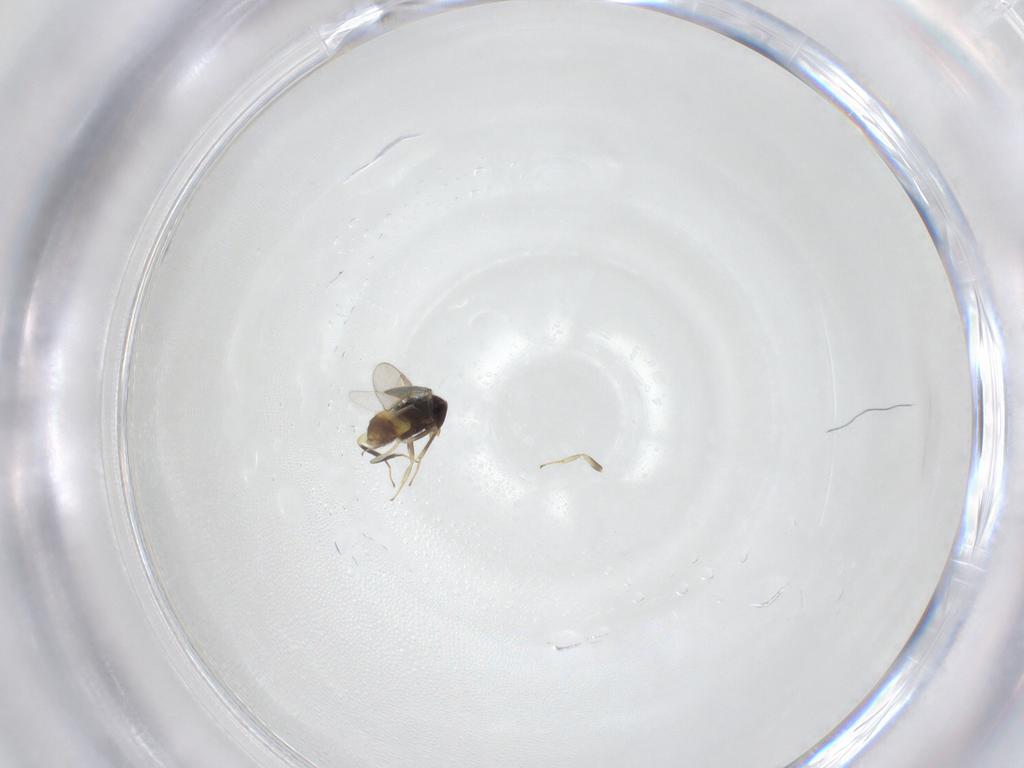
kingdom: Animalia
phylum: Arthropoda
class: Insecta
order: Hymenoptera
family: Aphelinidae
